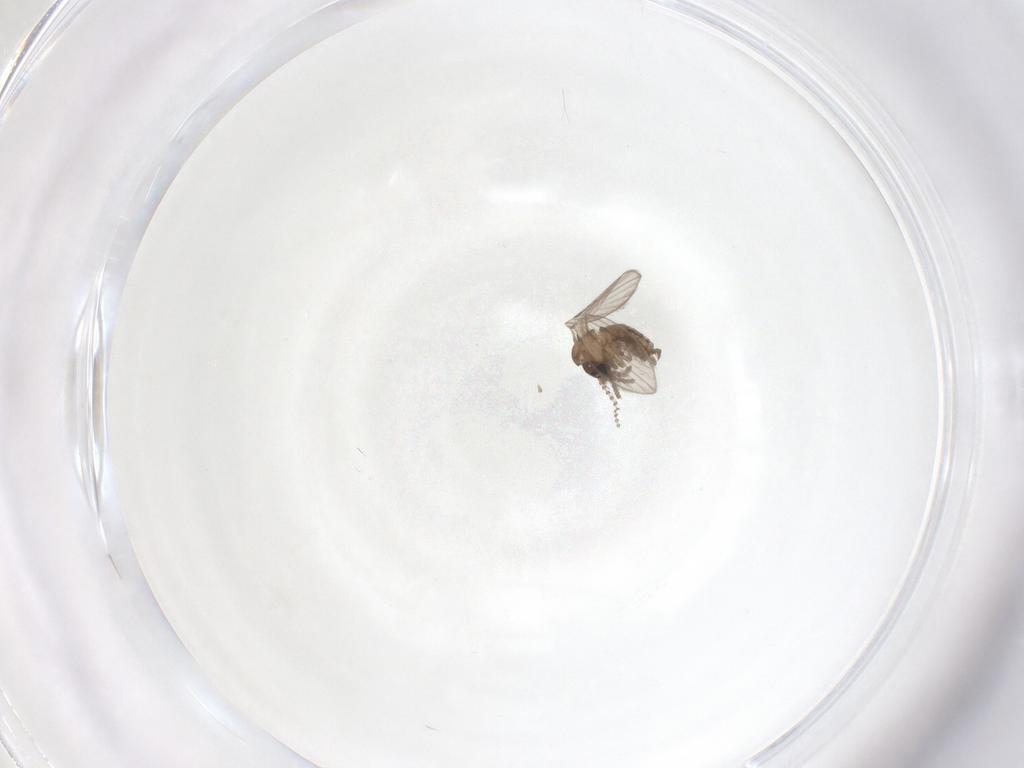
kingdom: Animalia
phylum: Arthropoda
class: Insecta
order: Diptera
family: Psychodidae
